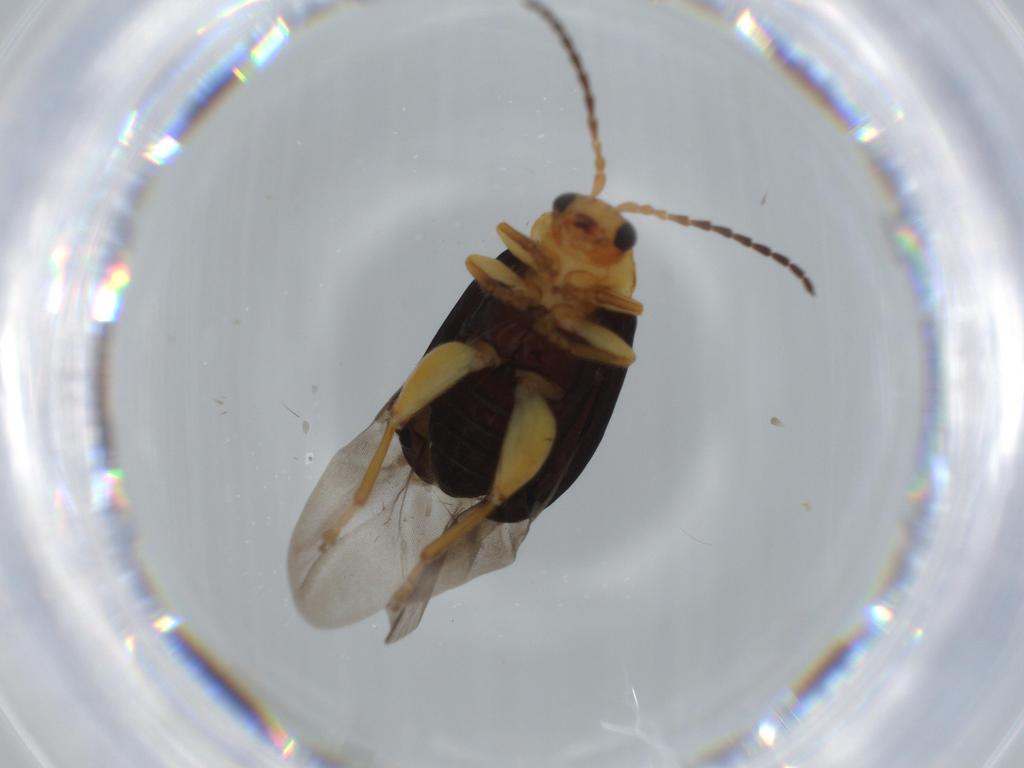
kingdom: Animalia
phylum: Arthropoda
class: Insecta
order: Coleoptera
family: Chrysomelidae
